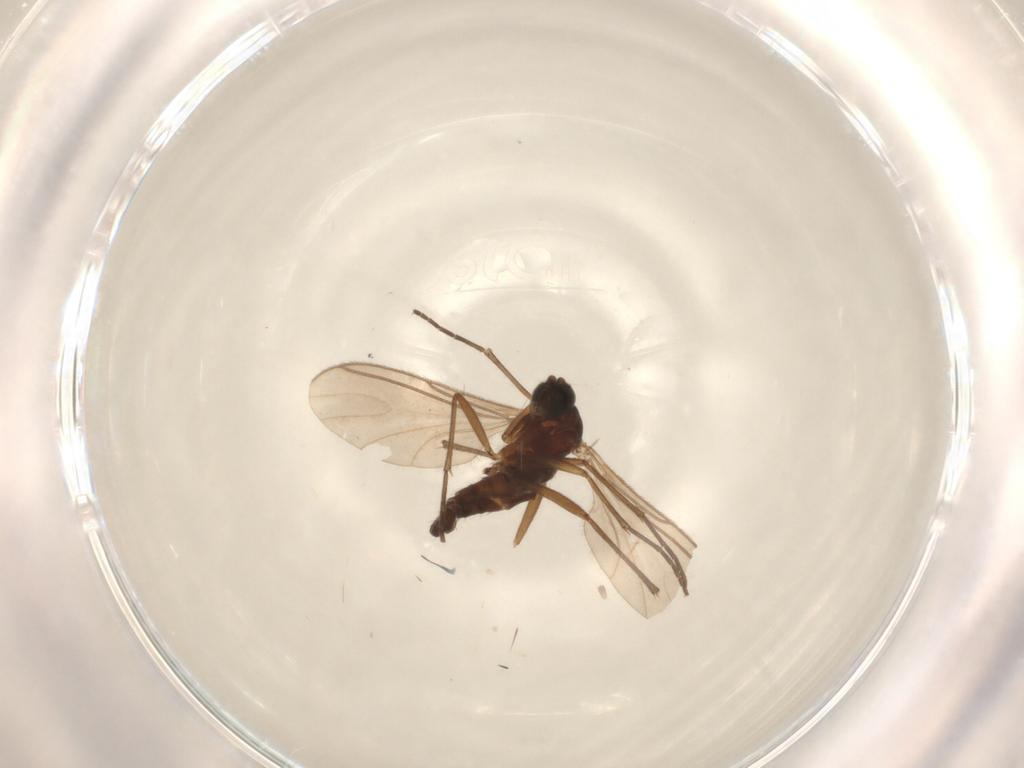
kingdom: Animalia
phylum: Arthropoda
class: Insecta
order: Diptera
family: Sciaridae
